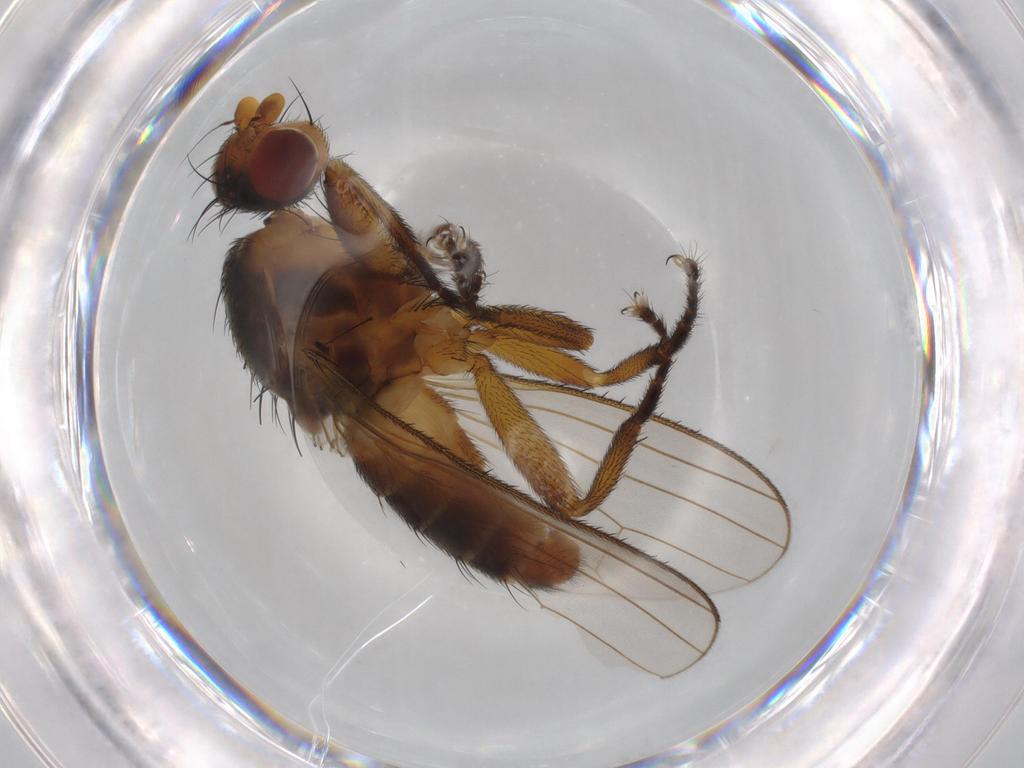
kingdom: Animalia
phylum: Arthropoda
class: Insecta
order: Diptera
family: Heleomyzidae
